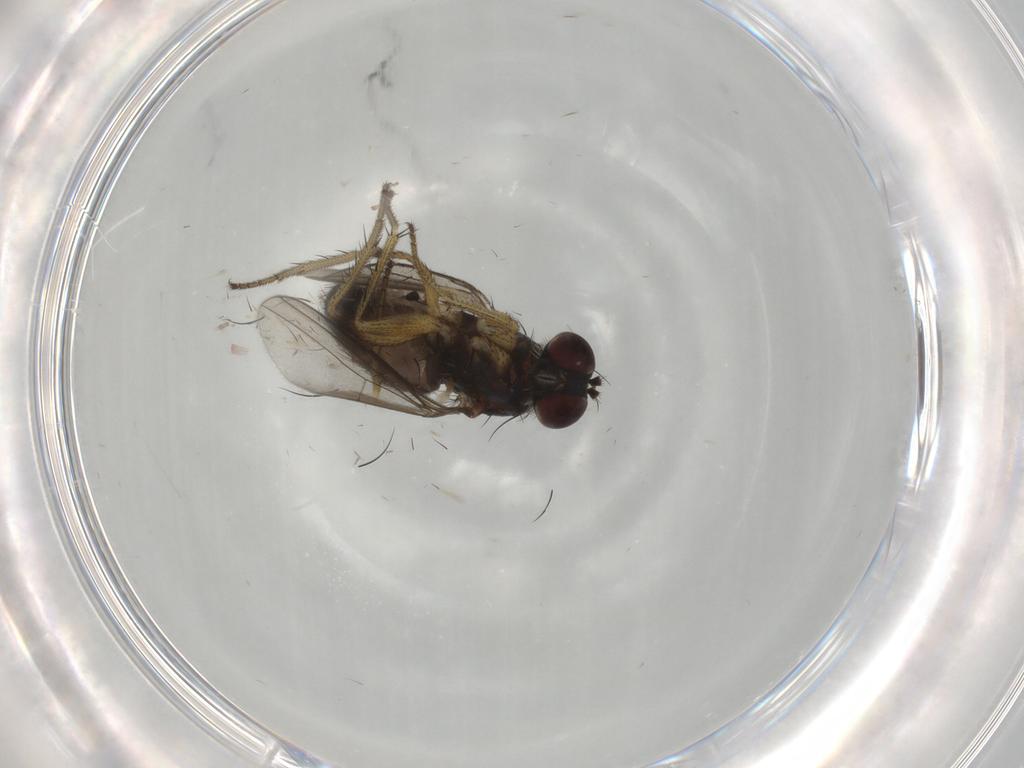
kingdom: Animalia
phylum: Arthropoda
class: Insecta
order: Diptera
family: Dolichopodidae
